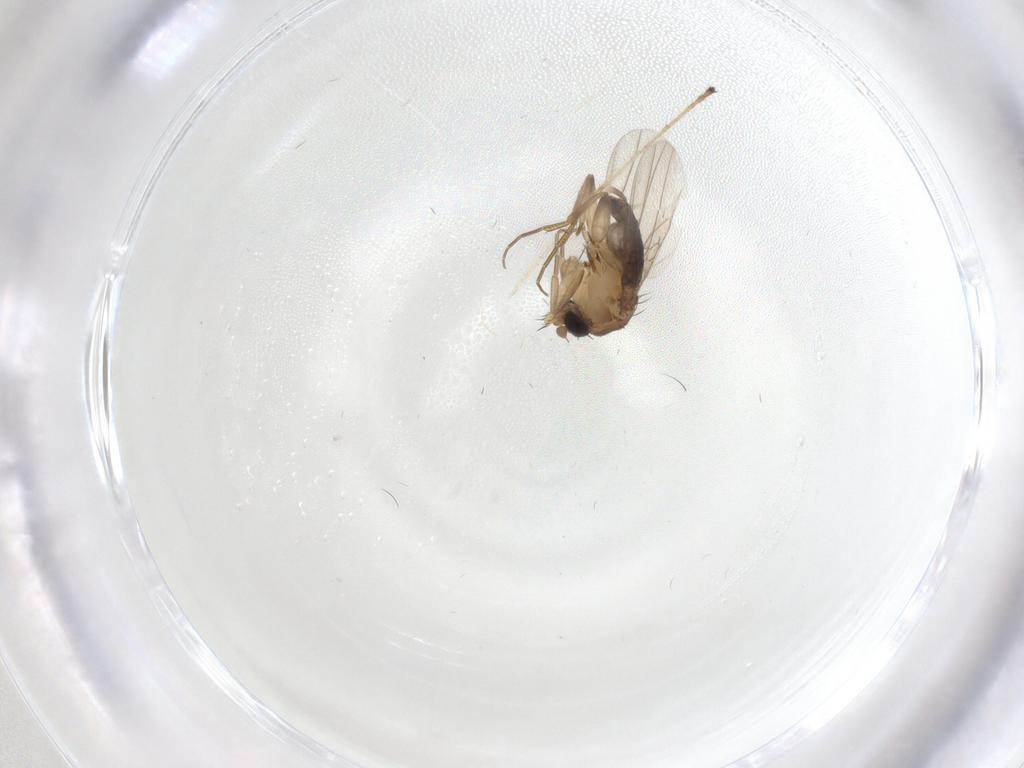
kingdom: Animalia
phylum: Arthropoda
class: Insecta
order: Diptera
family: Phoridae
